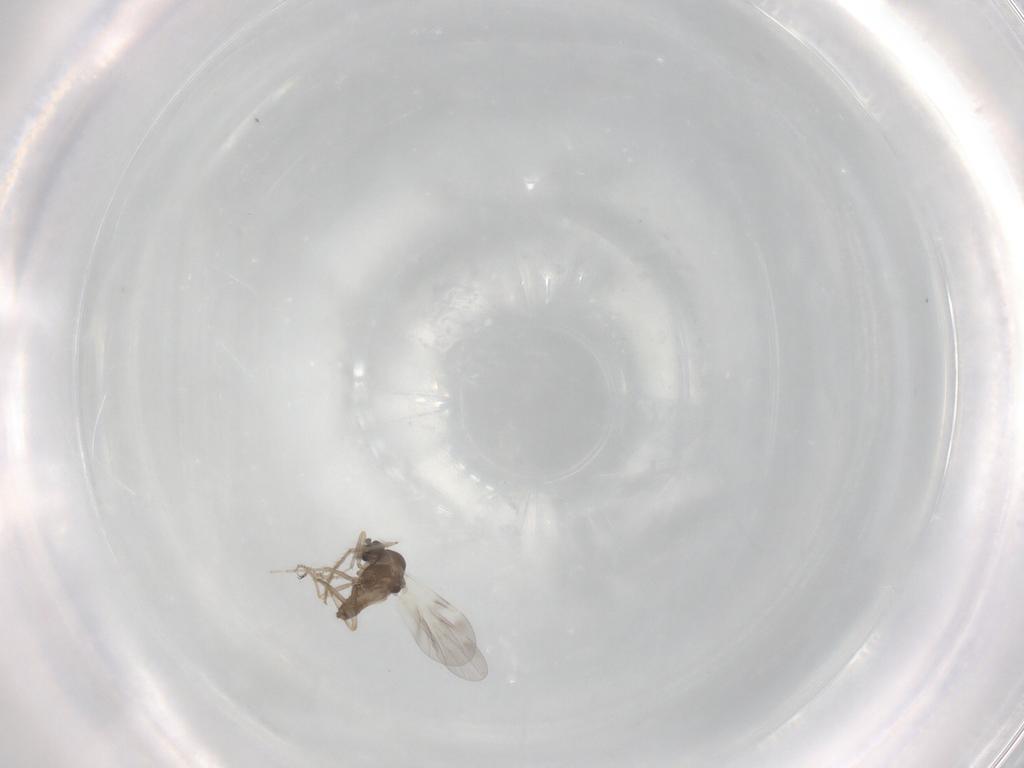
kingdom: Animalia
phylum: Arthropoda
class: Insecta
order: Diptera
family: Ceratopogonidae
